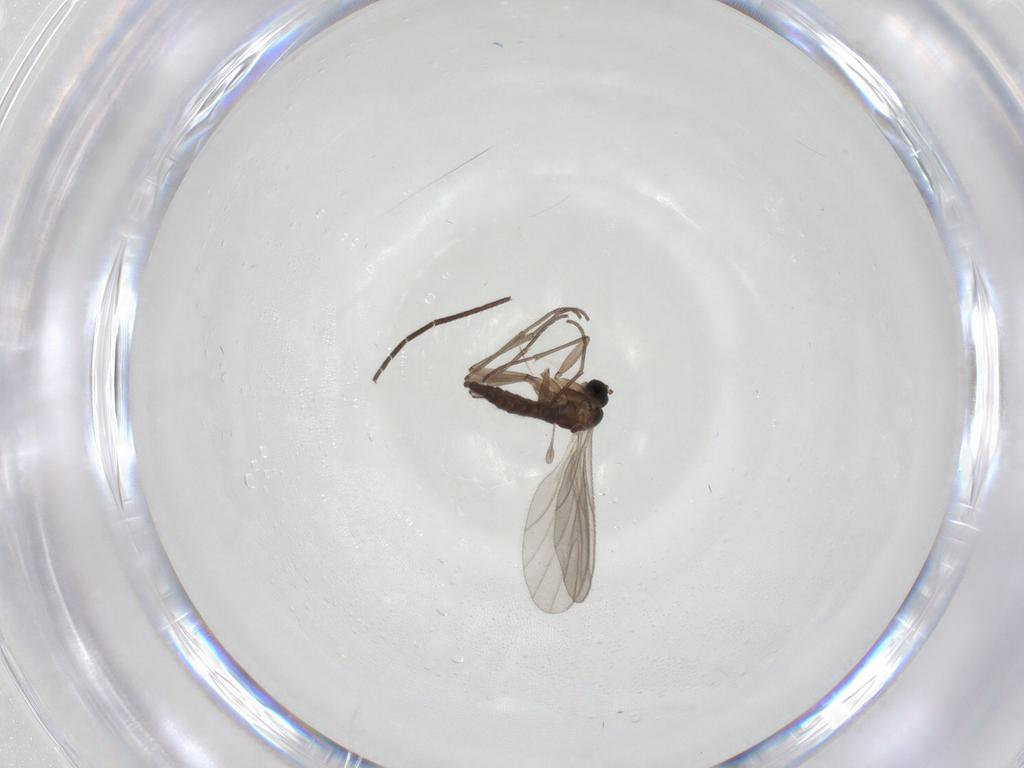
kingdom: Animalia
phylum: Arthropoda
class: Insecta
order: Diptera
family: Sciaridae
